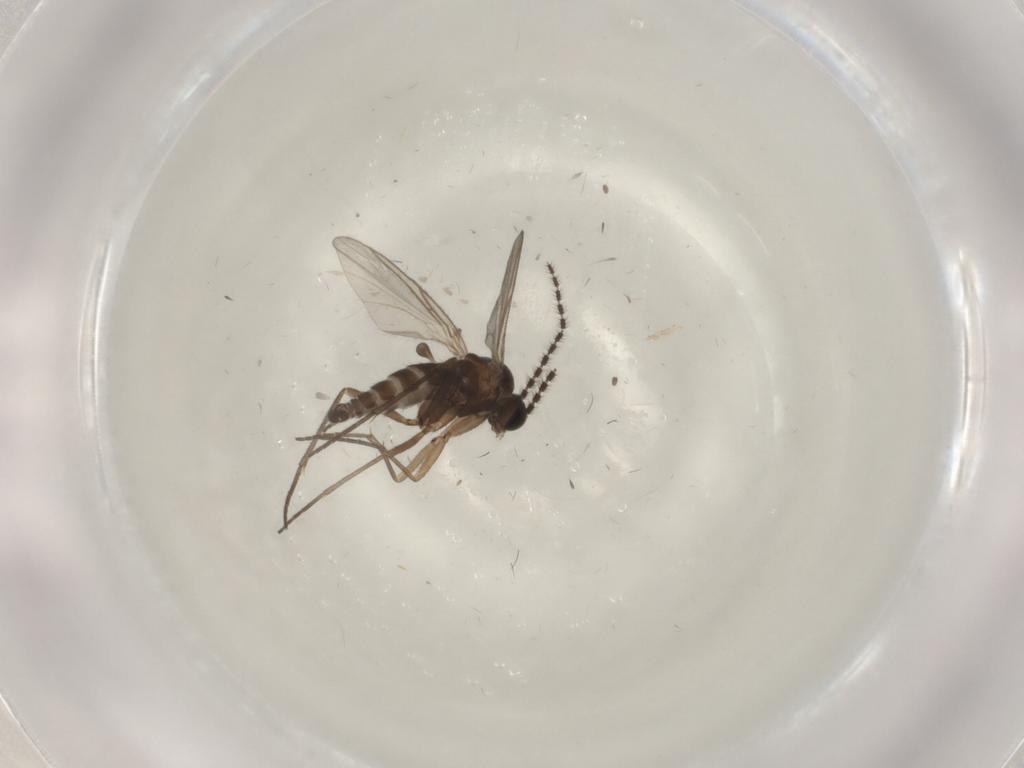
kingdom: Animalia
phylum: Arthropoda
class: Insecta
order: Diptera
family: Sciaridae
